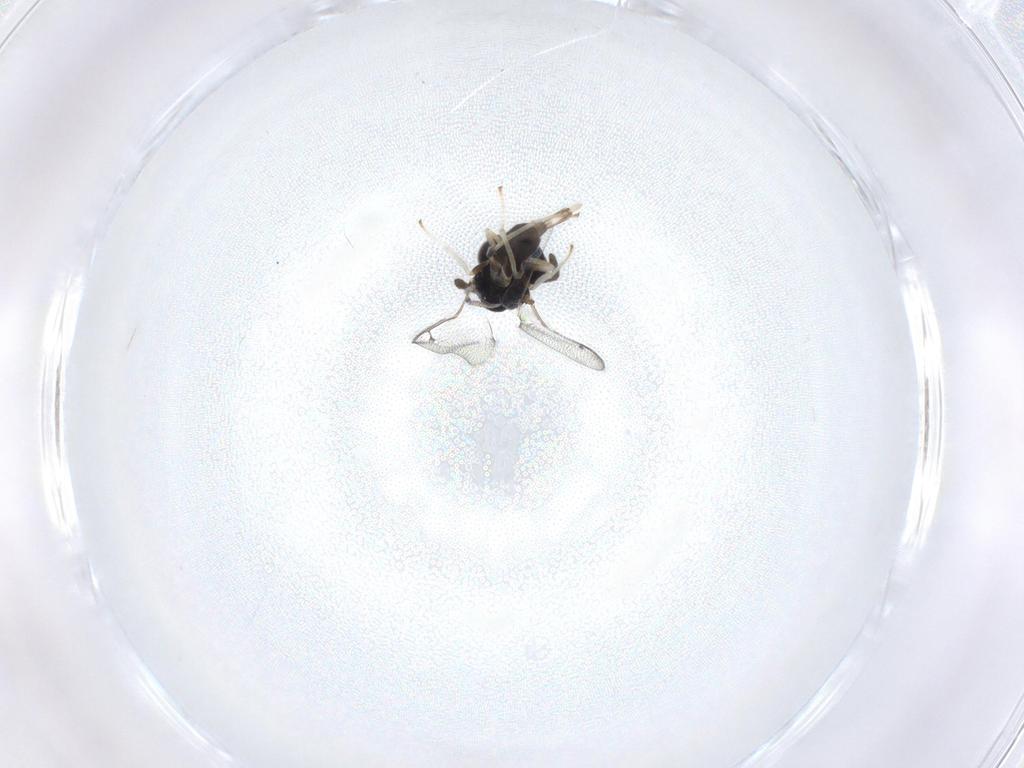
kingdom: Animalia
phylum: Arthropoda
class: Insecta
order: Hymenoptera
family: Pteromalidae
